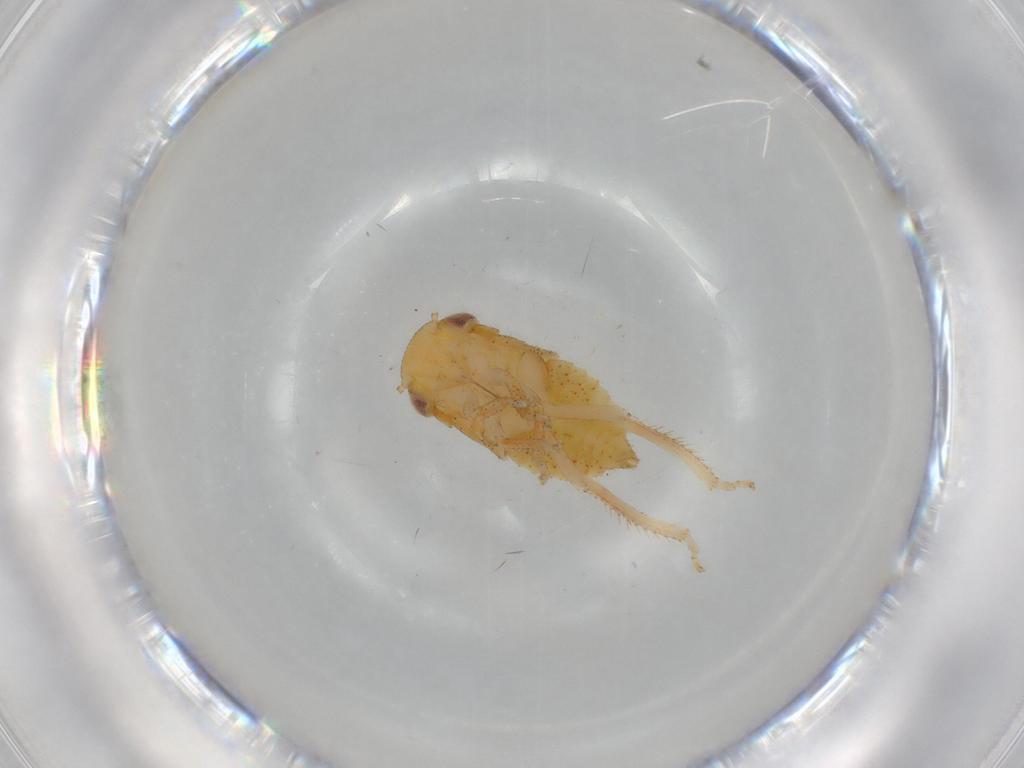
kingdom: Animalia
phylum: Arthropoda
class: Insecta
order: Hemiptera
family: Cicadellidae
